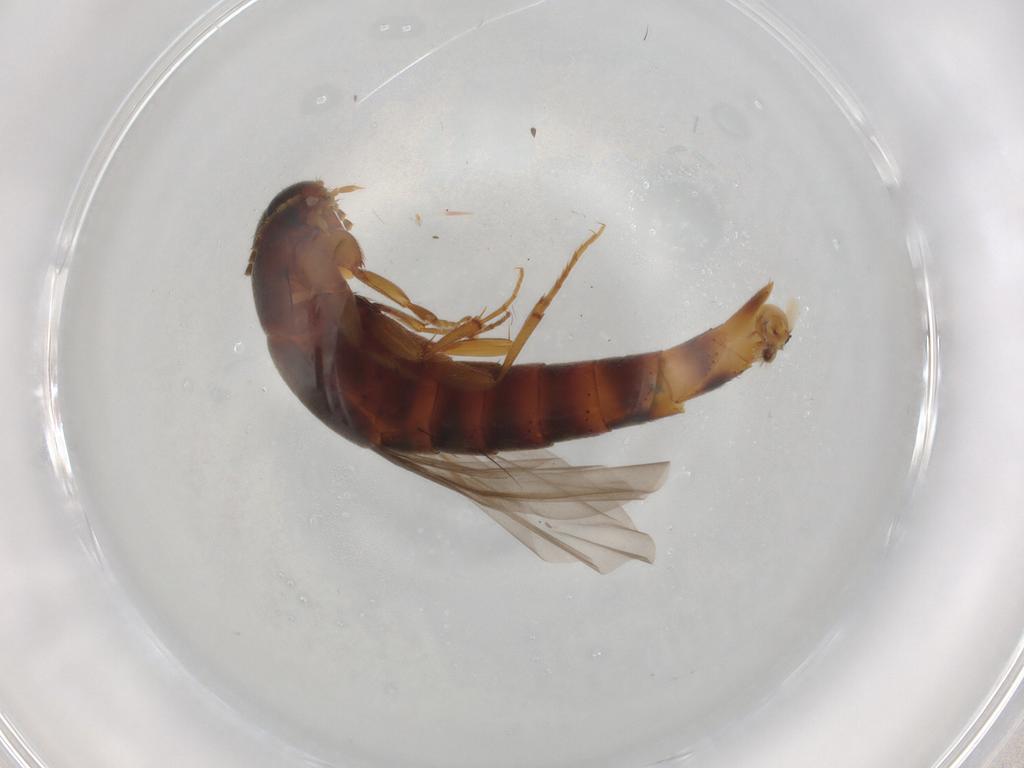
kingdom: Animalia
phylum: Arthropoda
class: Insecta
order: Coleoptera
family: Staphylinidae
